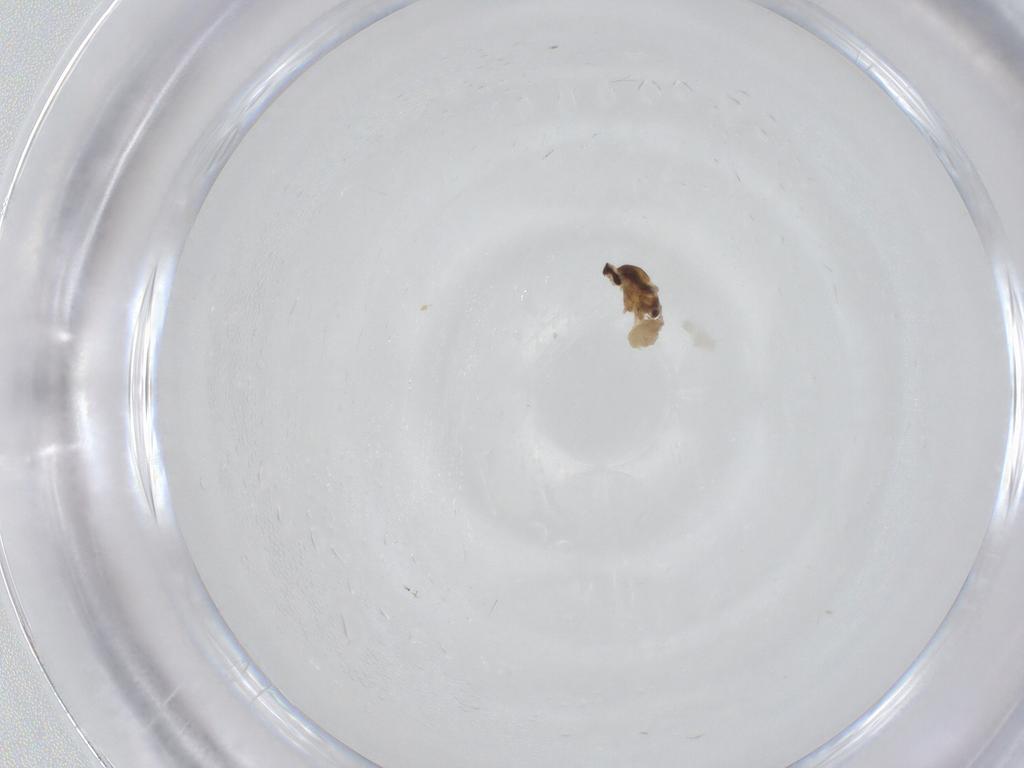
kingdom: Animalia
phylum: Arthropoda
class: Insecta
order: Diptera
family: Cecidomyiidae
